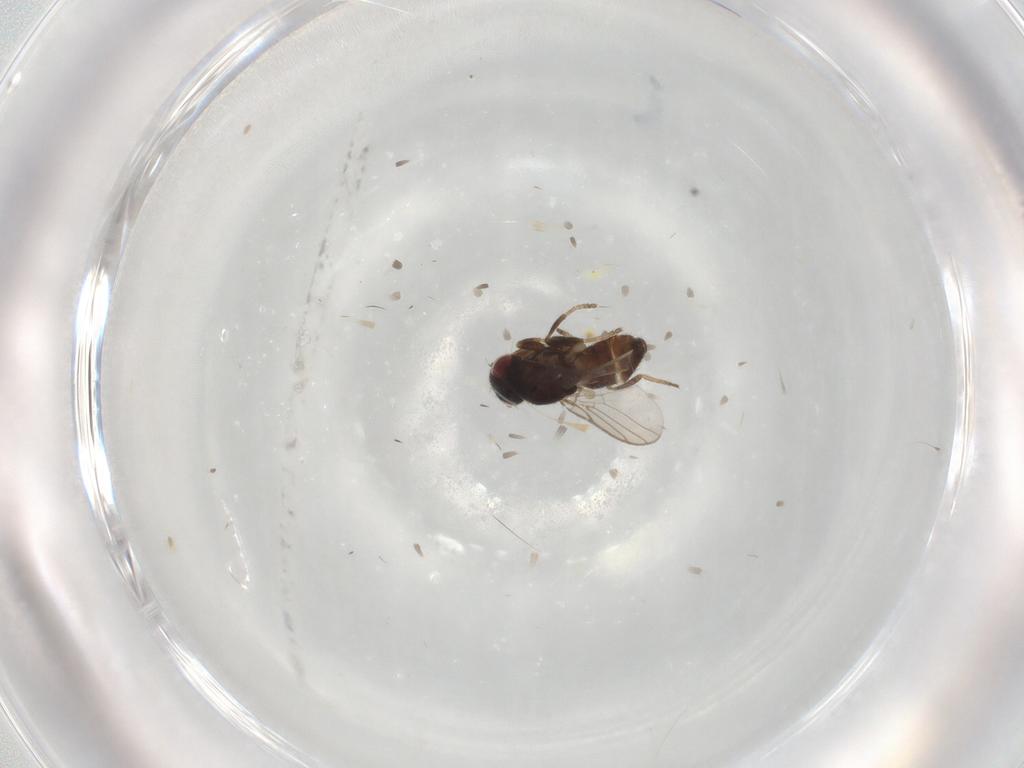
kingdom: Animalia
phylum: Arthropoda
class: Insecta
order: Diptera
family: Chloropidae
